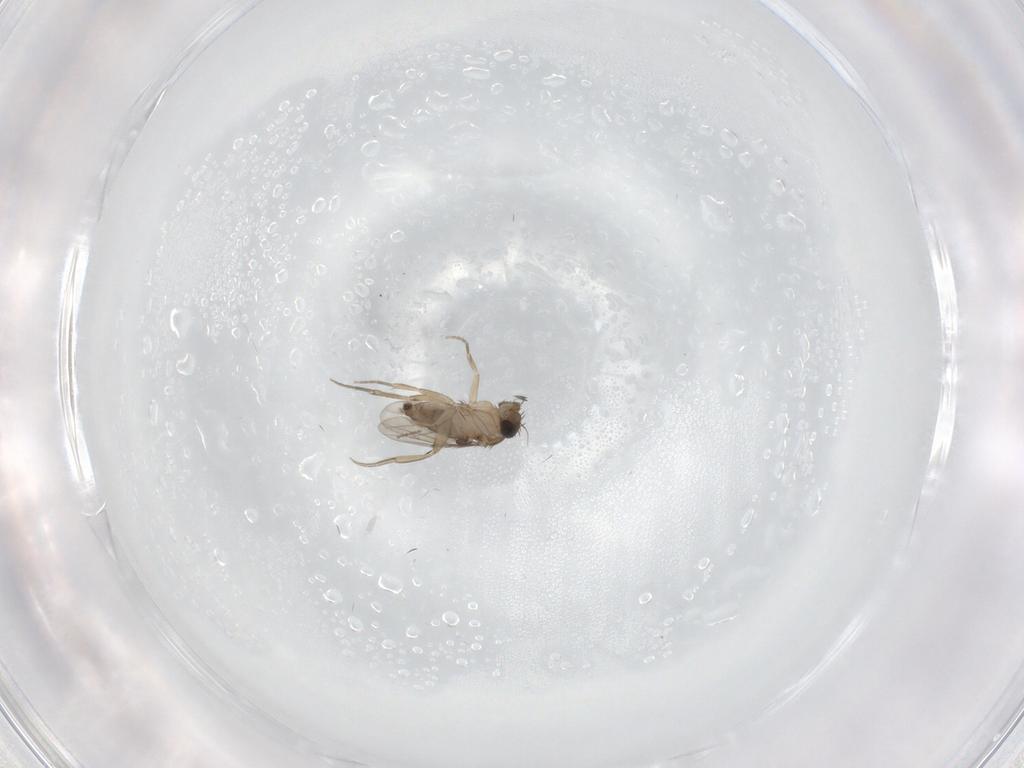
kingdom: Animalia
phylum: Arthropoda
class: Insecta
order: Diptera
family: Phoridae
